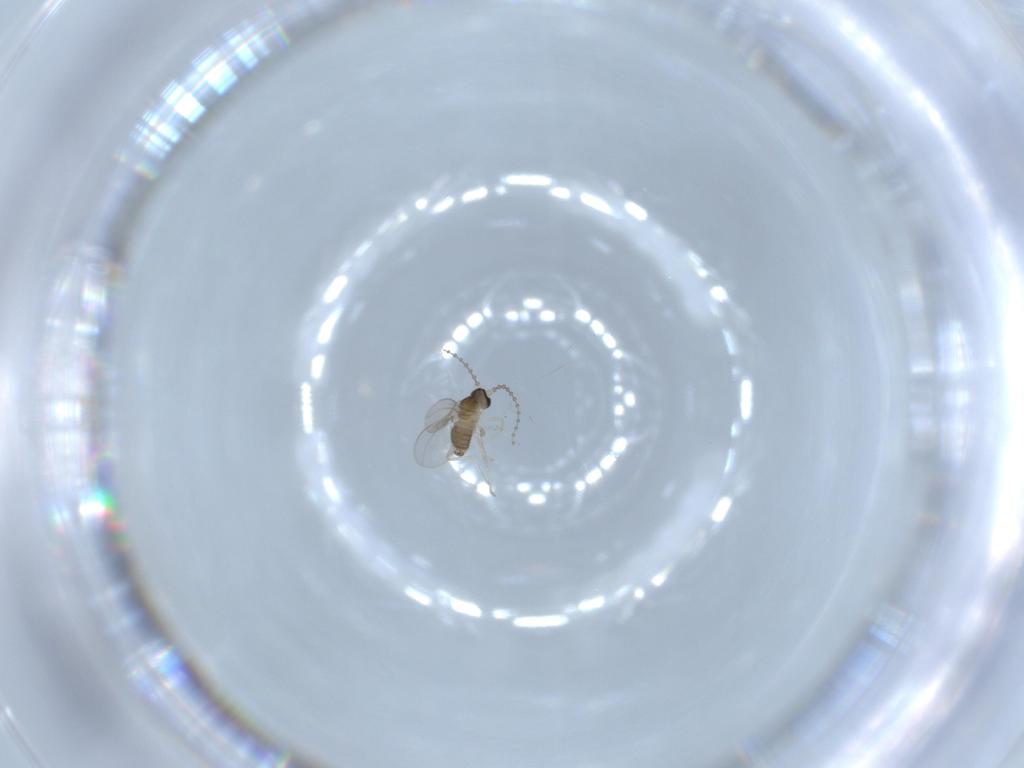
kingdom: Animalia
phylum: Arthropoda
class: Insecta
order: Diptera
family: Cecidomyiidae
